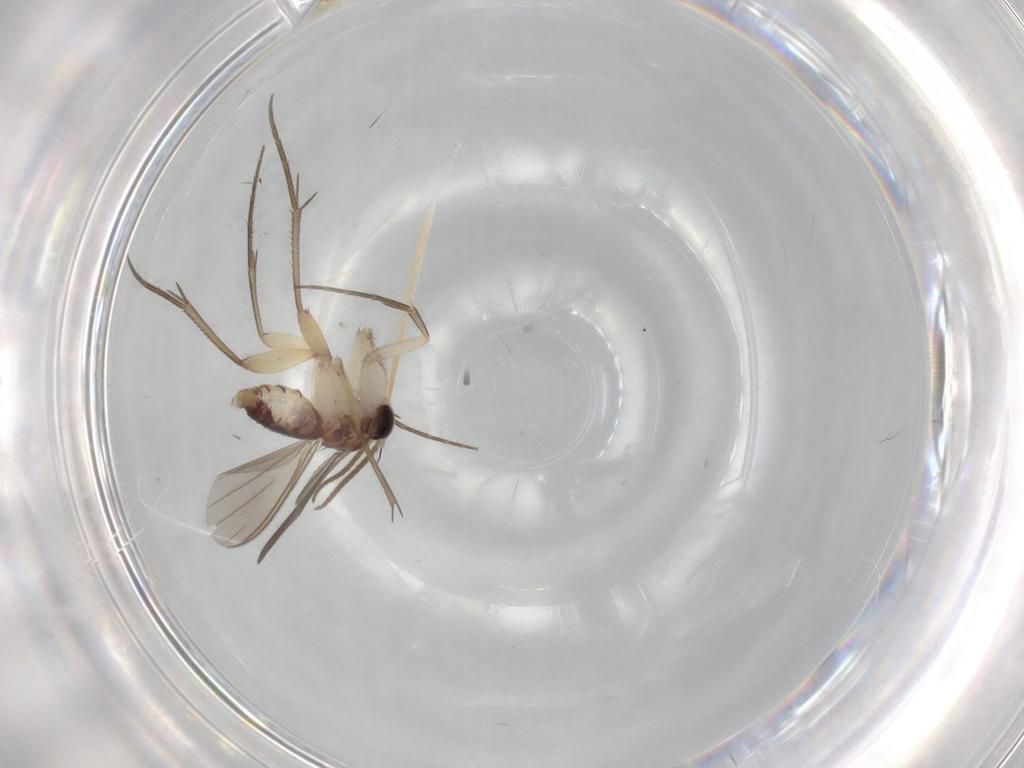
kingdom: Animalia
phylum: Arthropoda
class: Insecta
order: Diptera
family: Mycetophilidae
